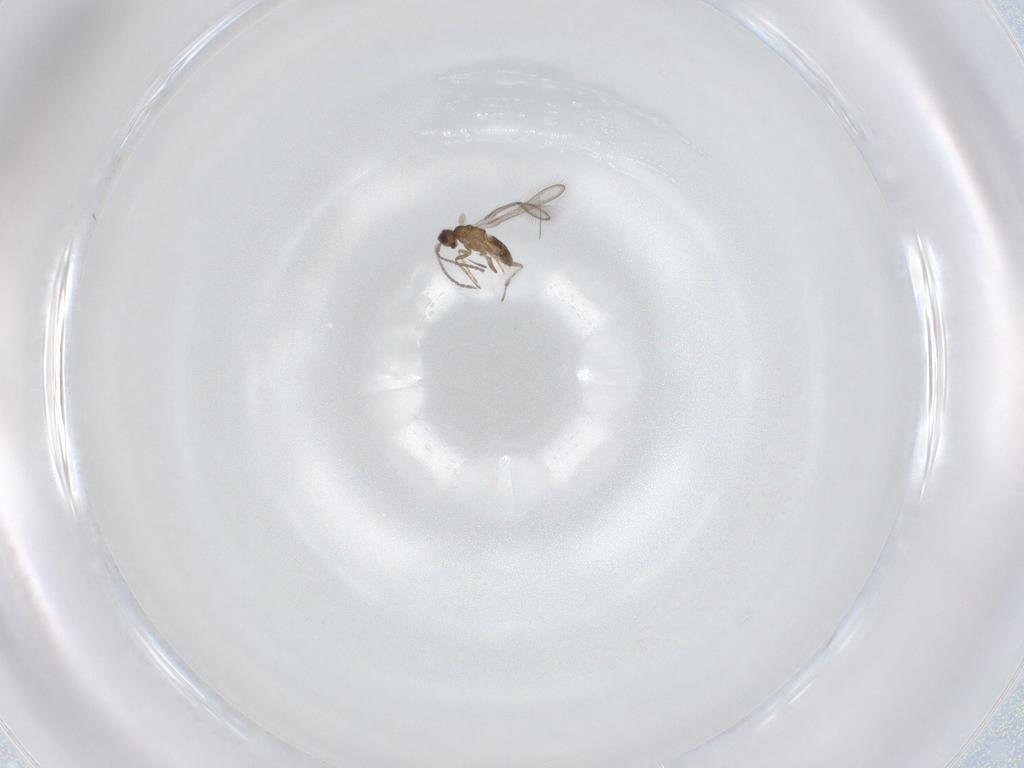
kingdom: Animalia
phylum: Arthropoda
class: Insecta
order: Hymenoptera
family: Mymaridae
